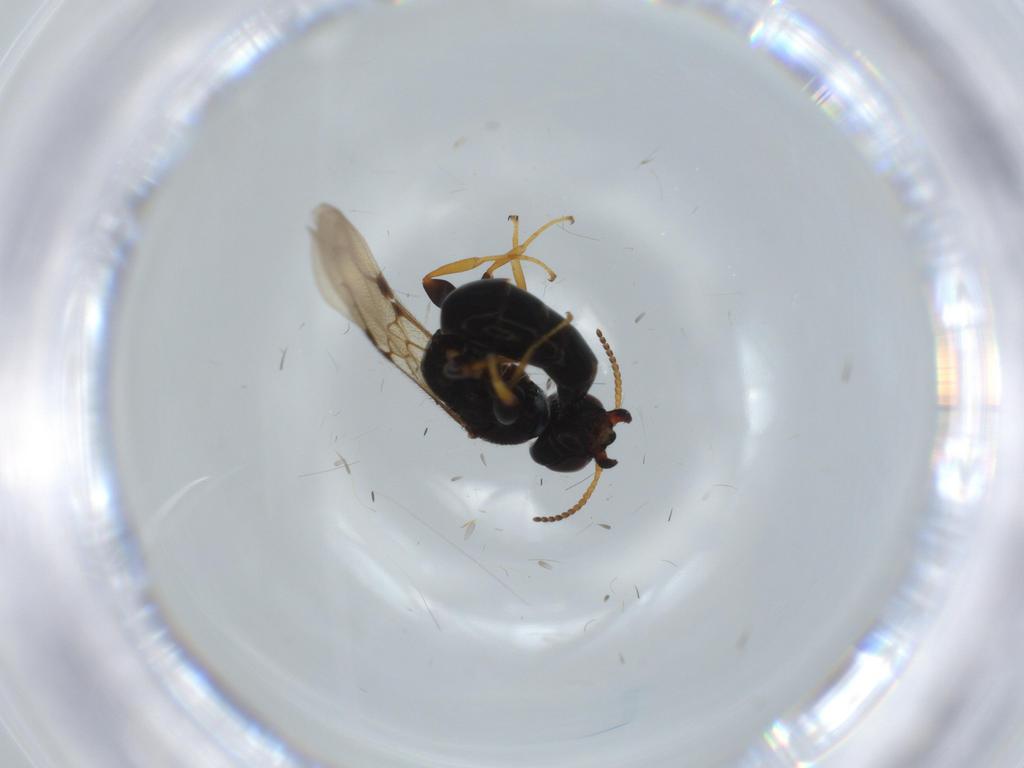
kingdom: Animalia
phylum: Arthropoda
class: Insecta
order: Hymenoptera
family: Bethylidae
